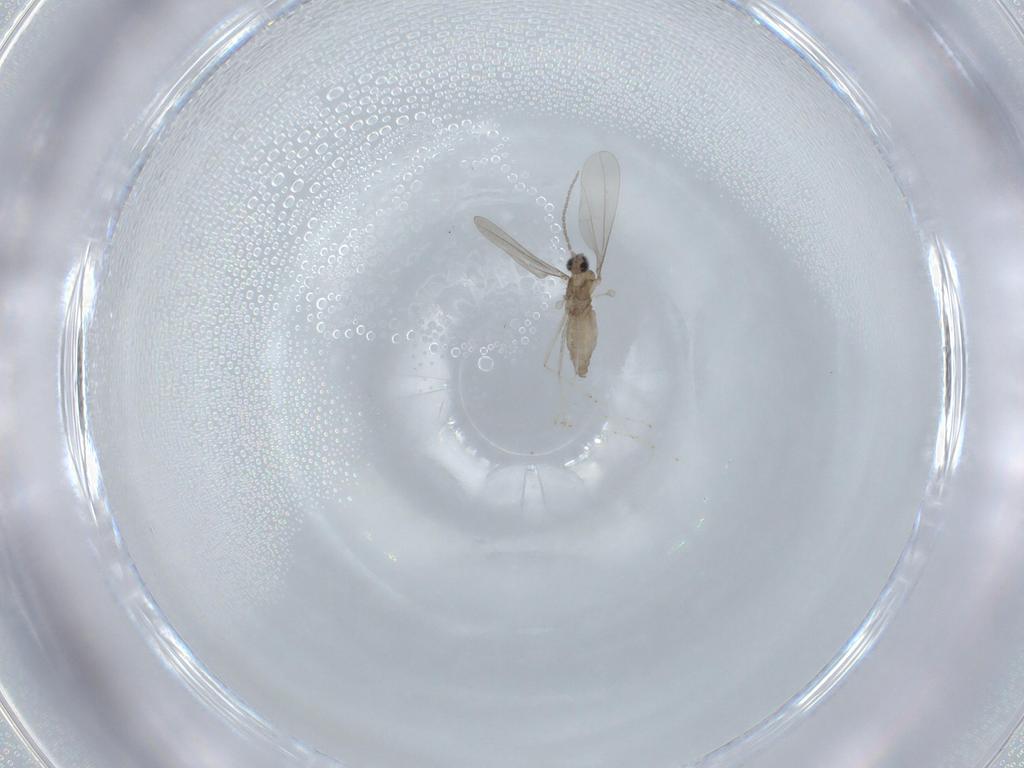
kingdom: Animalia
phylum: Arthropoda
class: Insecta
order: Diptera
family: Cecidomyiidae
